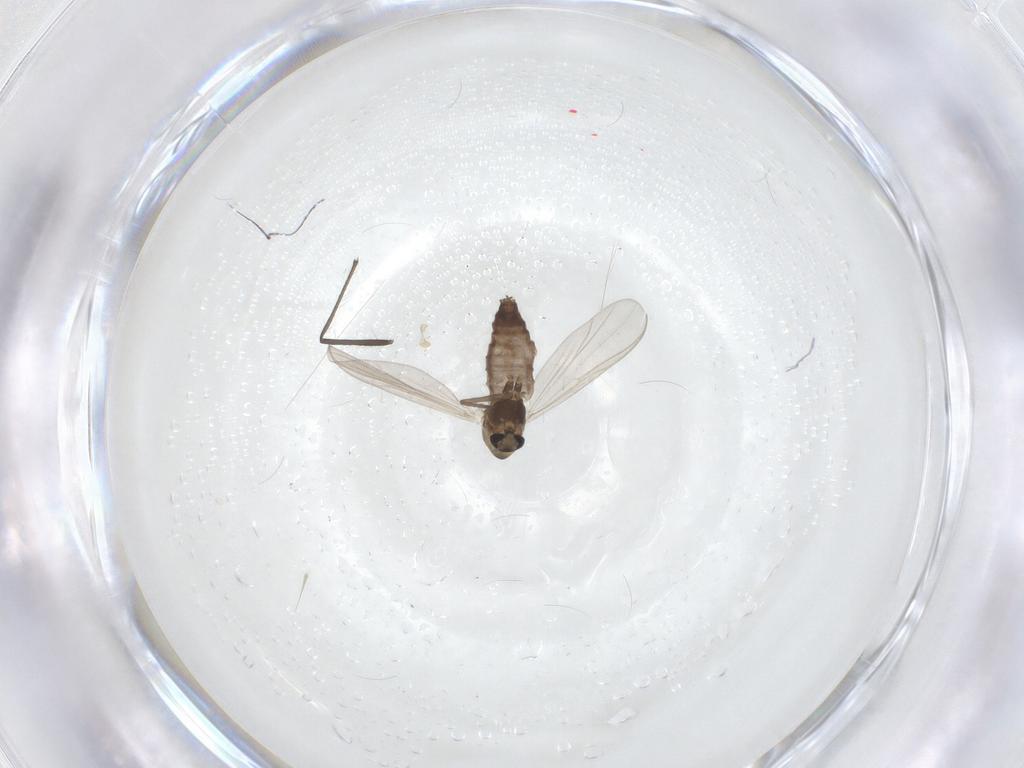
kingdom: Animalia
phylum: Arthropoda
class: Insecta
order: Diptera
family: Chironomidae
